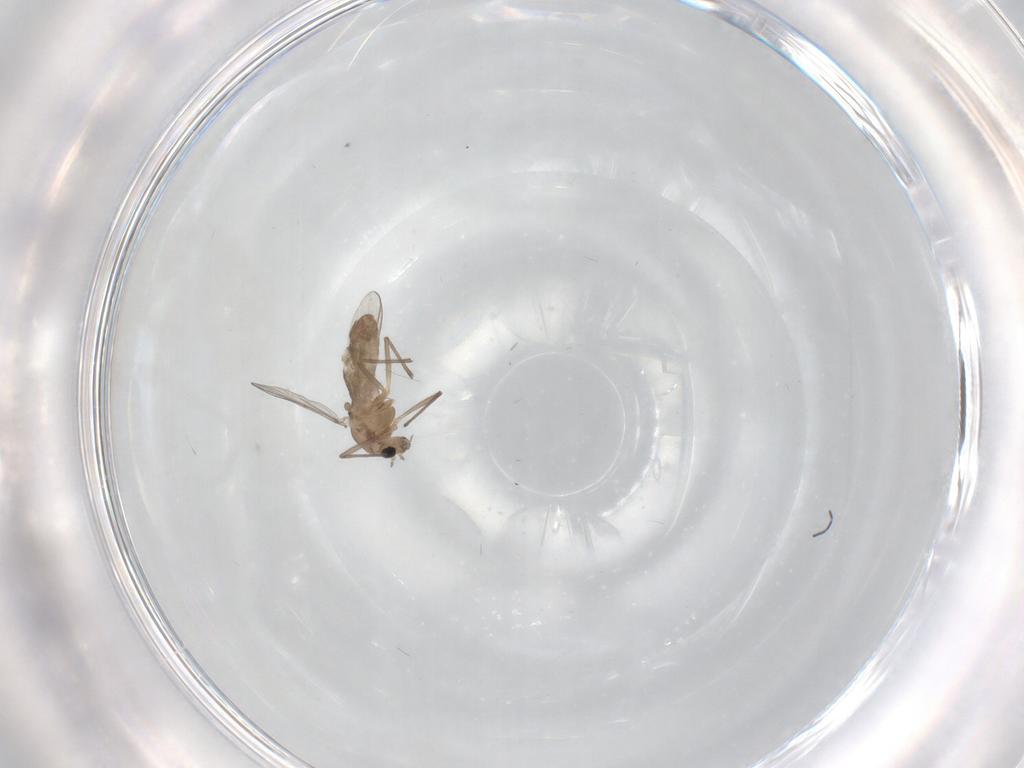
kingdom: Animalia
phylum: Arthropoda
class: Insecta
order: Diptera
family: Chironomidae
